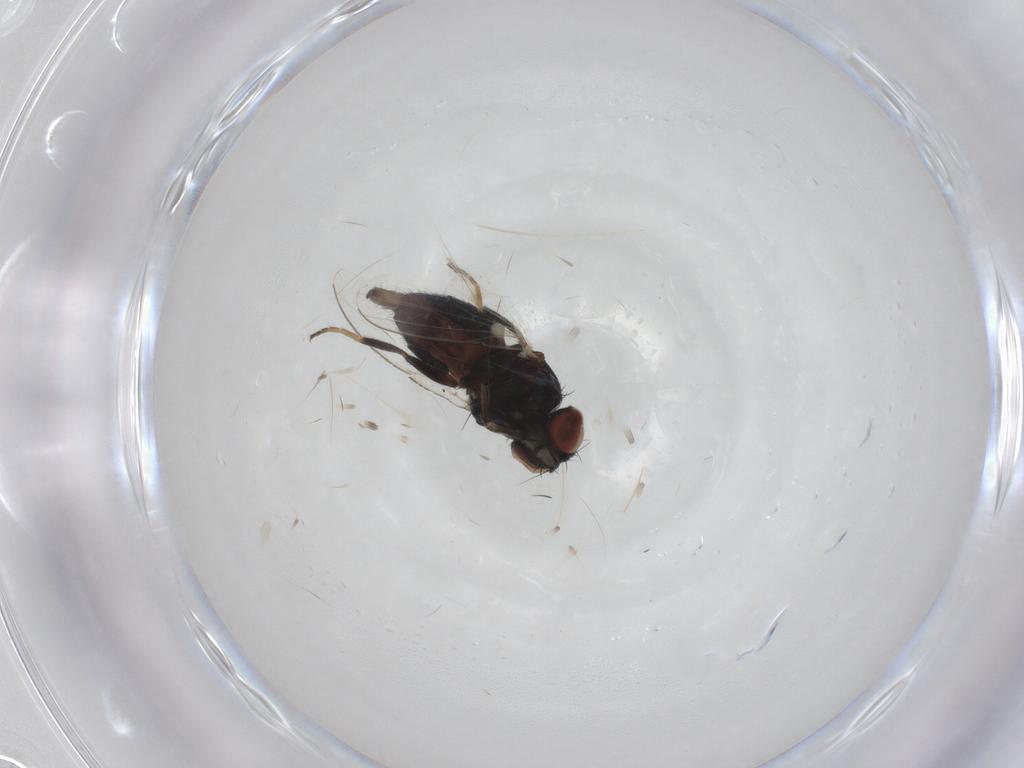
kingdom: Animalia
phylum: Arthropoda
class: Insecta
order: Diptera
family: Milichiidae
